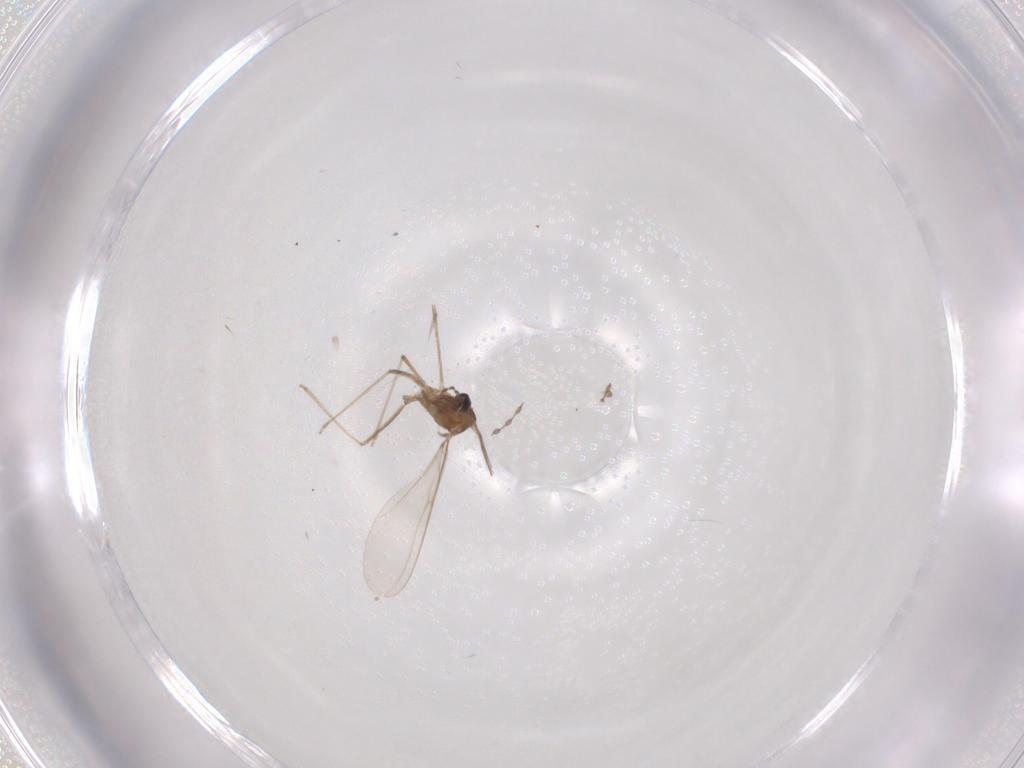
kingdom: Animalia
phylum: Arthropoda
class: Insecta
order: Diptera
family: Cecidomyiidae
